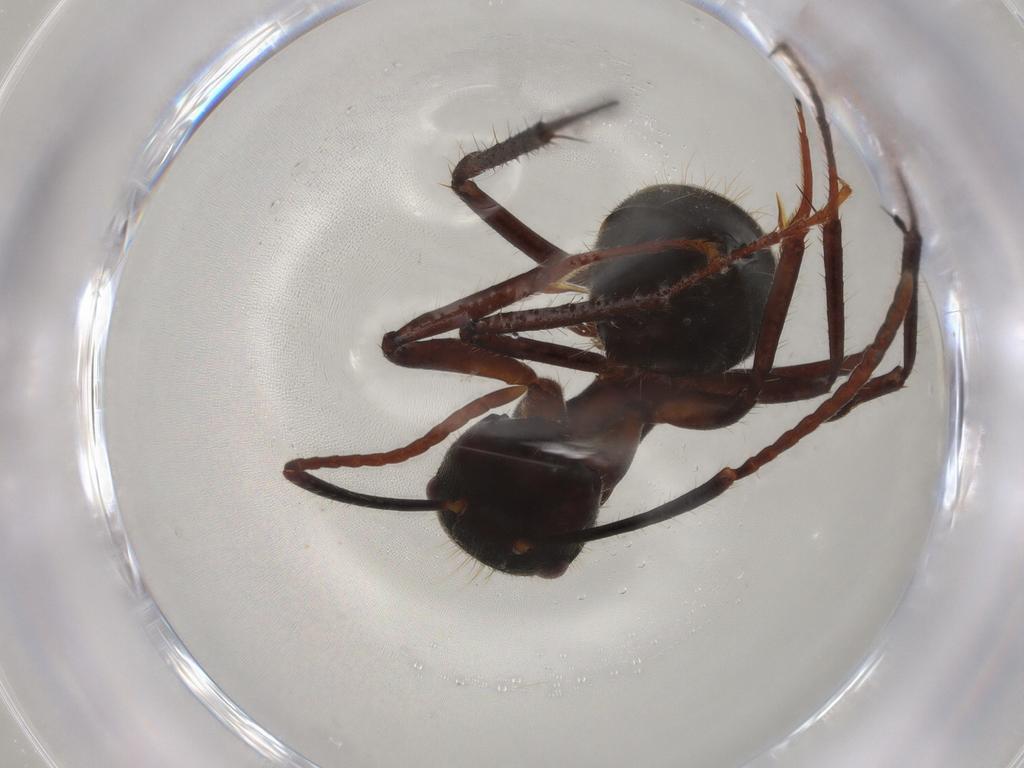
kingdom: Animalia
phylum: Arthropoda
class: Insecta
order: Hymenoptera
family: Formicidae
